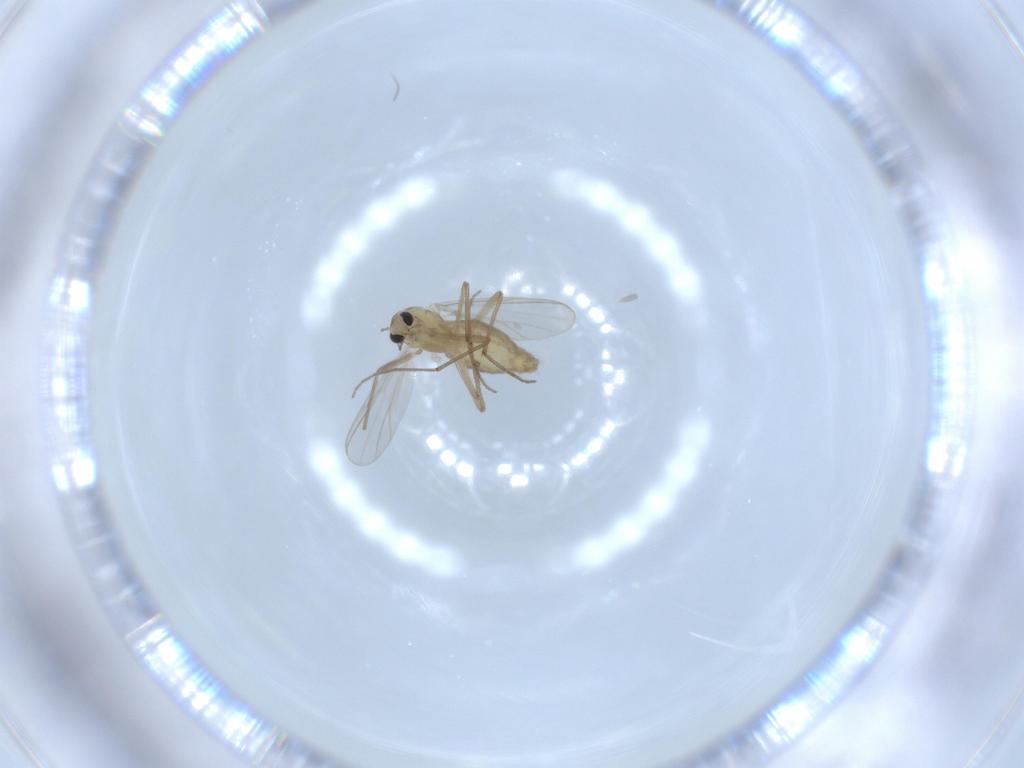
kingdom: Animalia
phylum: Arthropoda
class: Insecta
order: Diptera
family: Chironomidae
